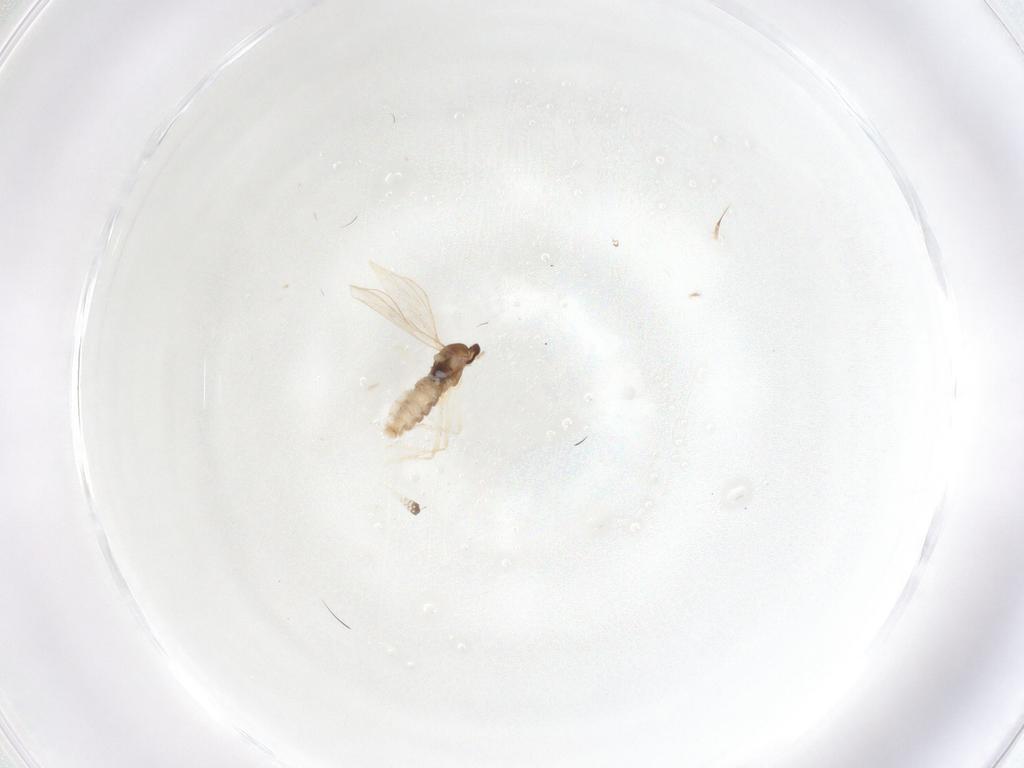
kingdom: Animalia
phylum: Arthropoda
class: Insecta
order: Diptera
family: Cecidomyiidae
